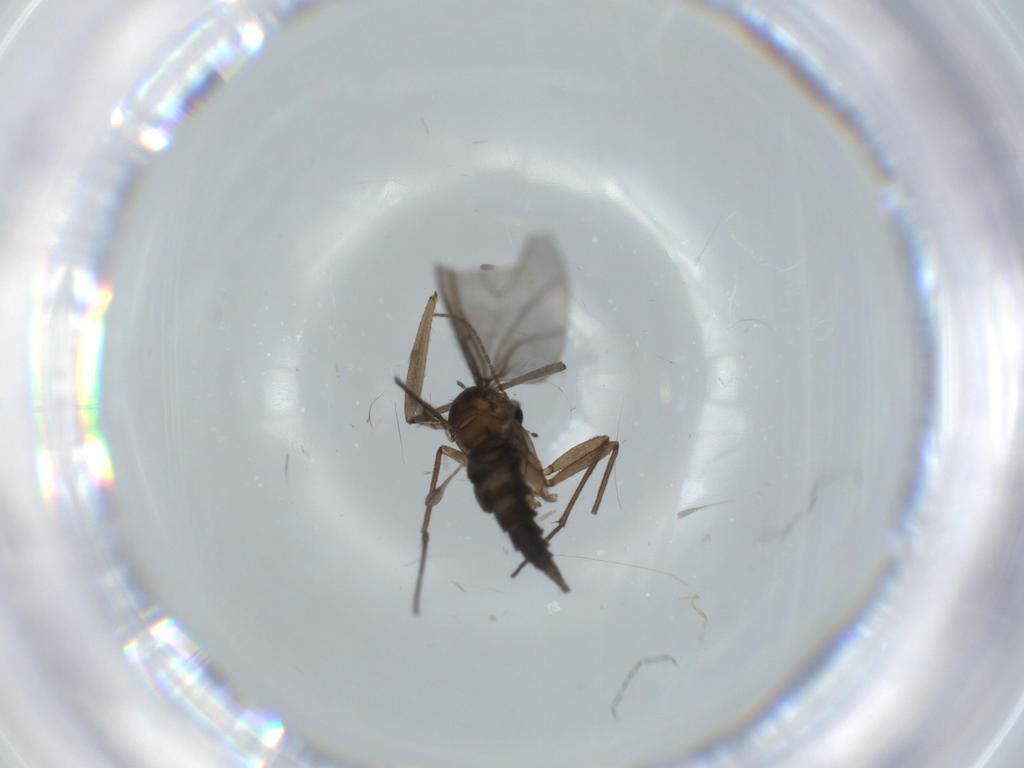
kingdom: Animalia
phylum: Arthropoda
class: Insecta
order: Diptera
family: Sciaridae
